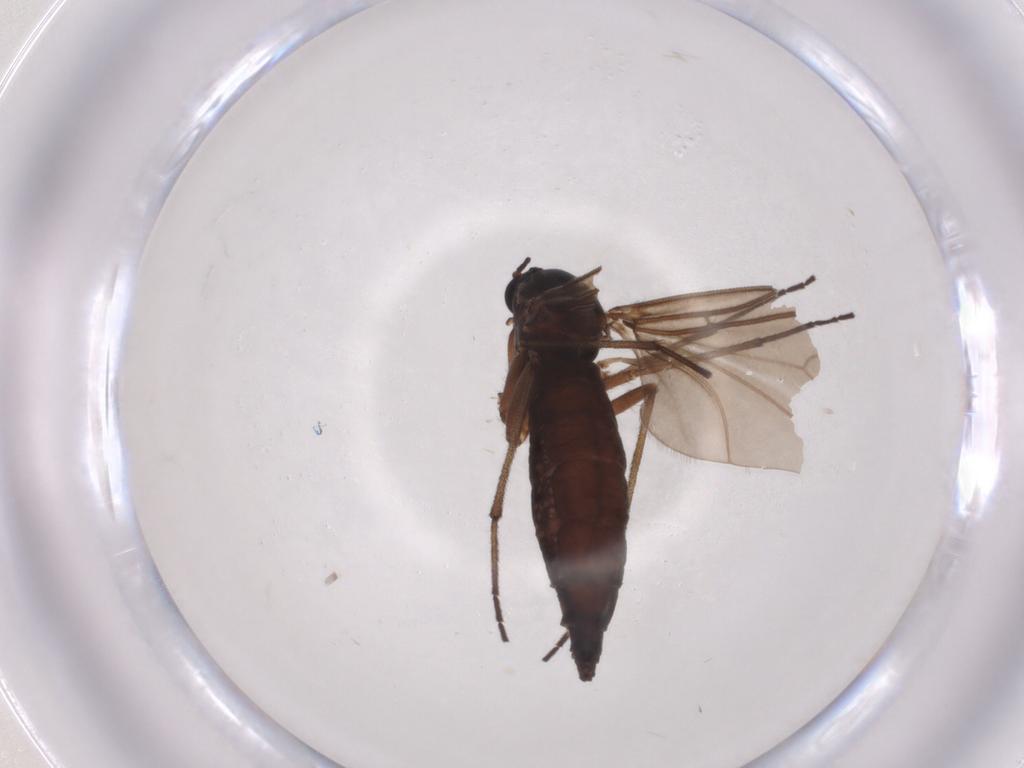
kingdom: Animalia
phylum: Arthropoda
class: Insecta
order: Diptera
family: Sciaridae
